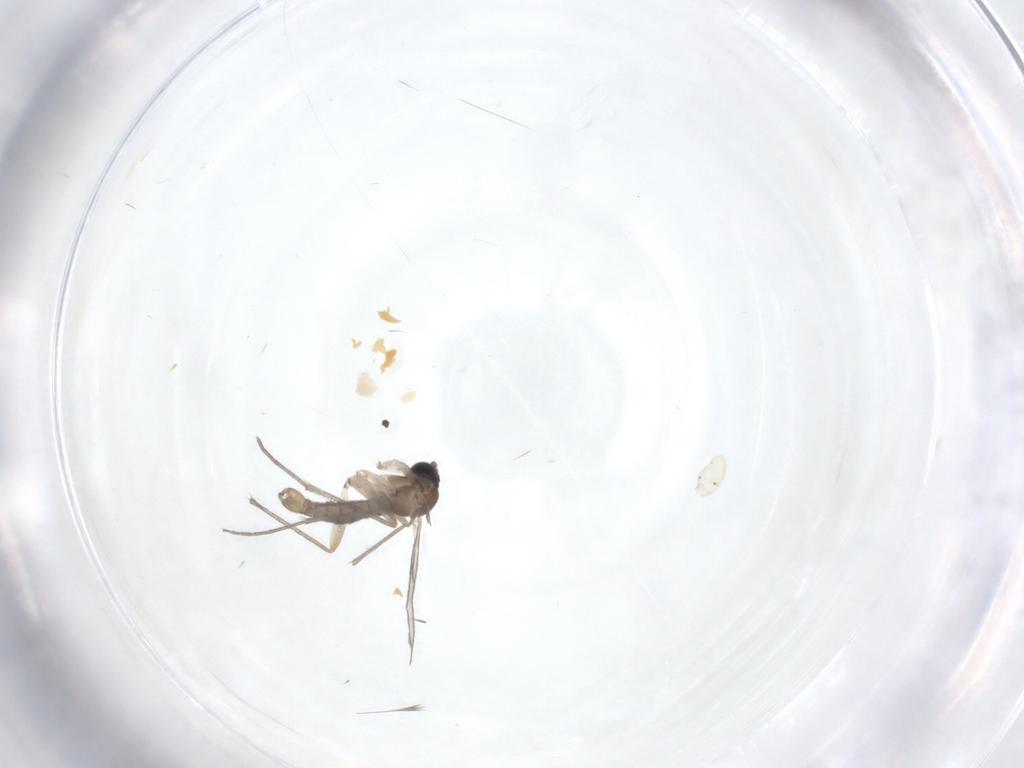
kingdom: Animalia
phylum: Arthropoda
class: Insecta
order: Diptera
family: Sciaridae
